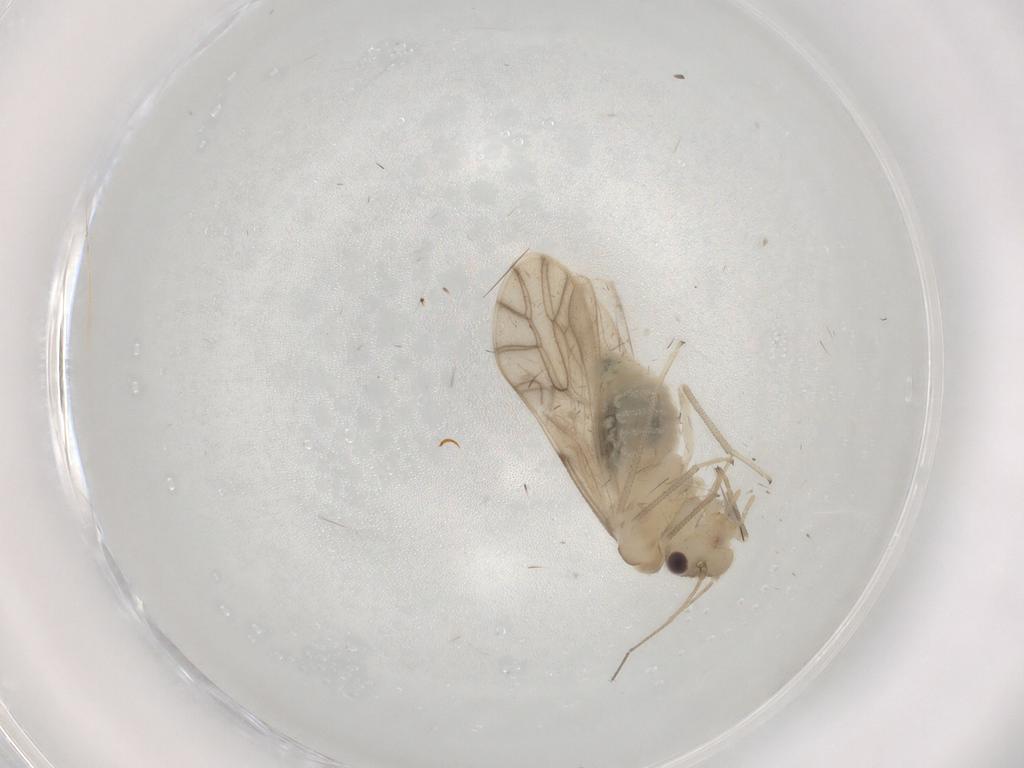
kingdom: Animalia
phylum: Arthropoda
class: Insecta
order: Psocodea
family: Caeciliusidae
